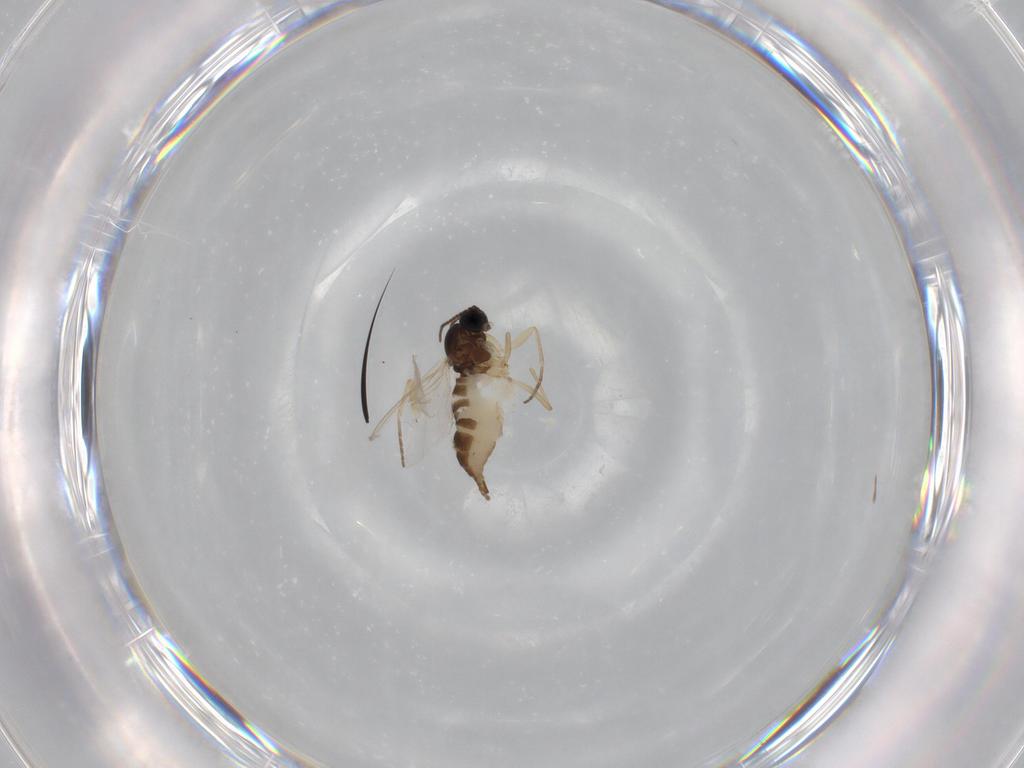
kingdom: Animalia
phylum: Arthropoda
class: Insecta
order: Diptera
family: Sciaridae
